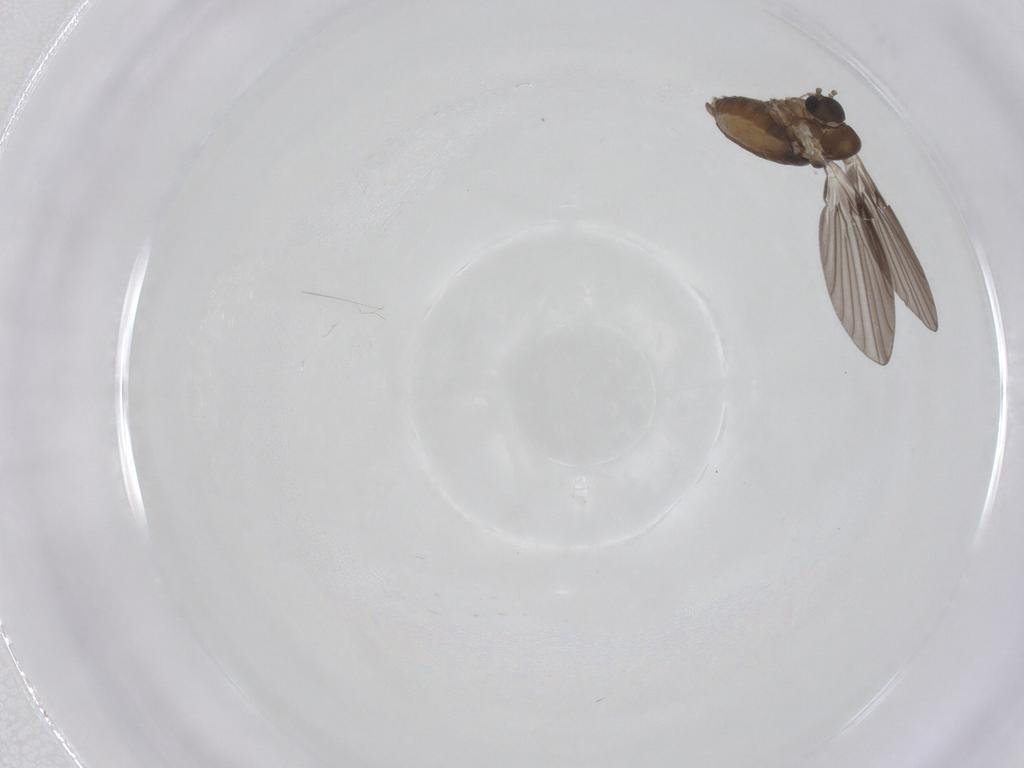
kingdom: Animalia
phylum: Arthropoda
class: Insecta
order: Diptera
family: Psychodidae
